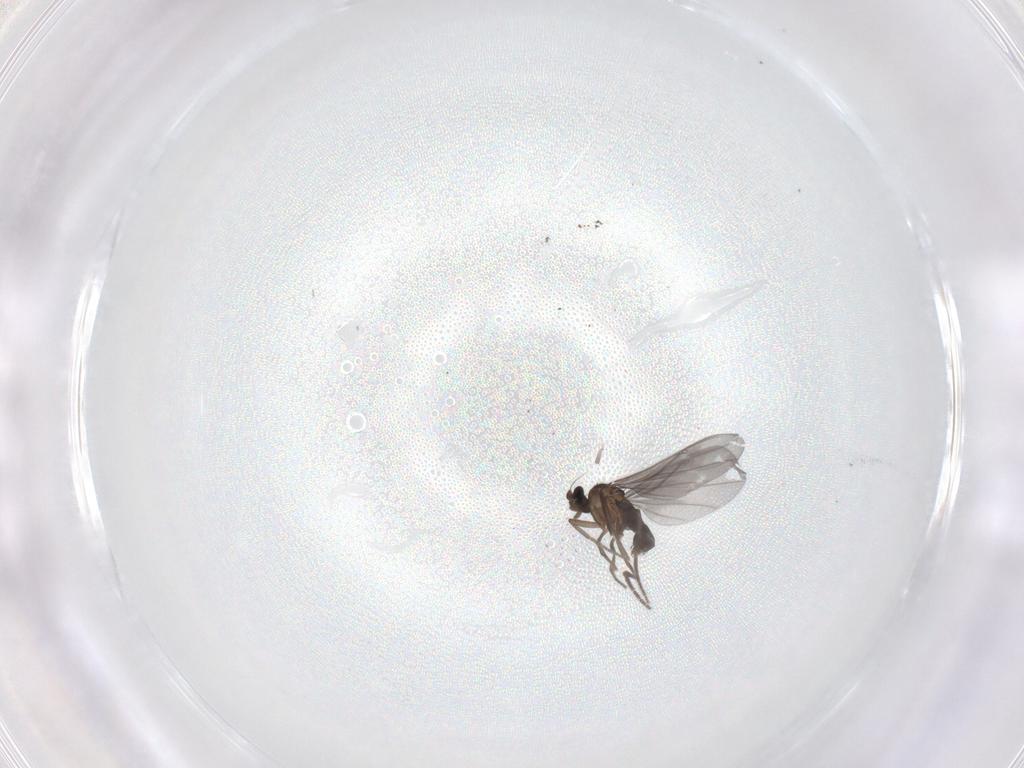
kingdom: Animalia
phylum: Arthropoda
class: Insecta
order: Diptera
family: Phoridae
